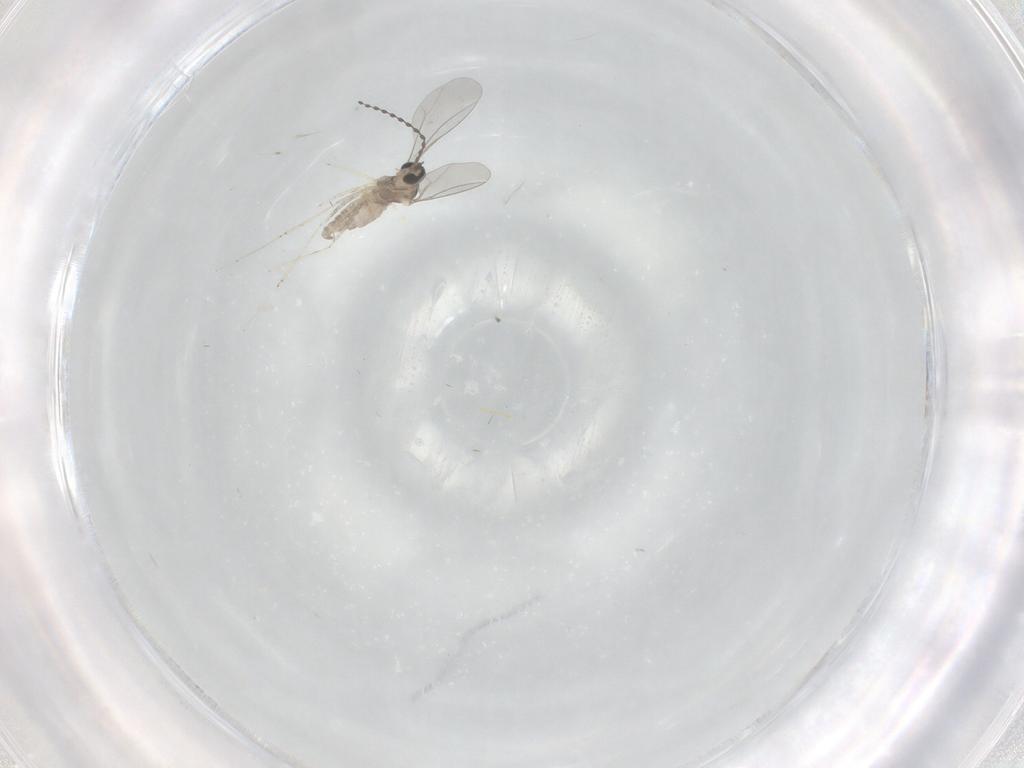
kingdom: Animalia
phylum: Arthropoda
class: Insecta
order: Diptera
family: Cecidomyiidae
